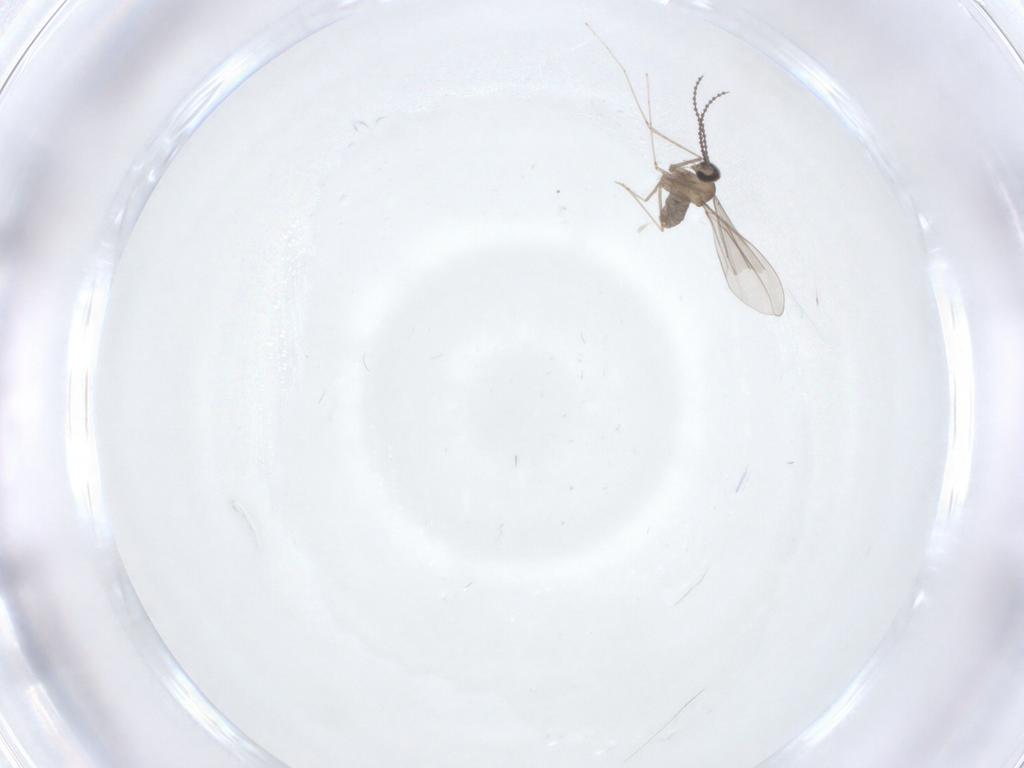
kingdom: Animalia
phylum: Arthropoda
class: Insecta
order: Diptera
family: Cecidomyiidae
